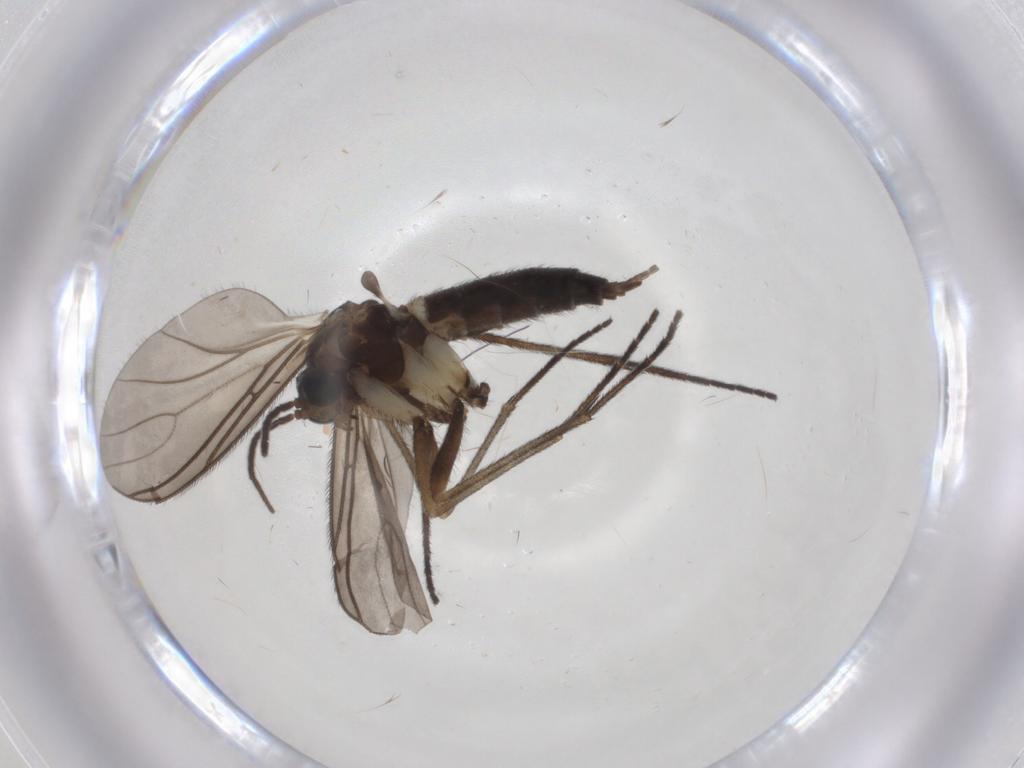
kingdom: Animalia
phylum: Arthropoda
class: Insecta
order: Diptera
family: Sciaridae
